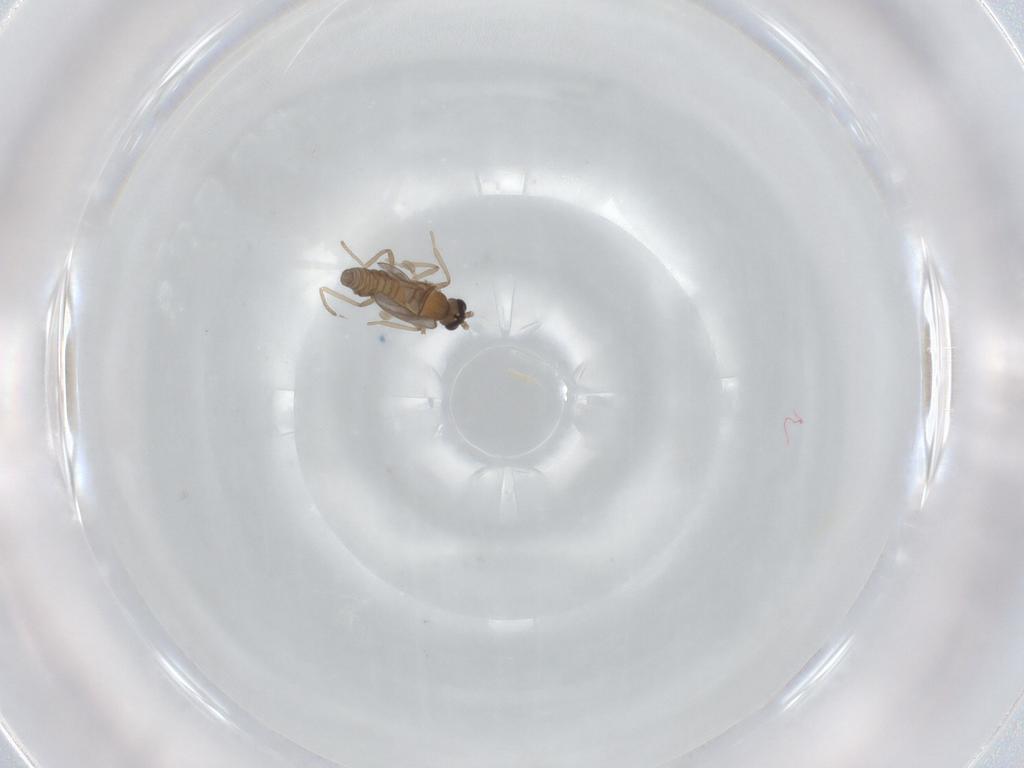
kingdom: Animalia
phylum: Arthropoda
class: Insecta
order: Diptera
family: Cecidomyiidae
